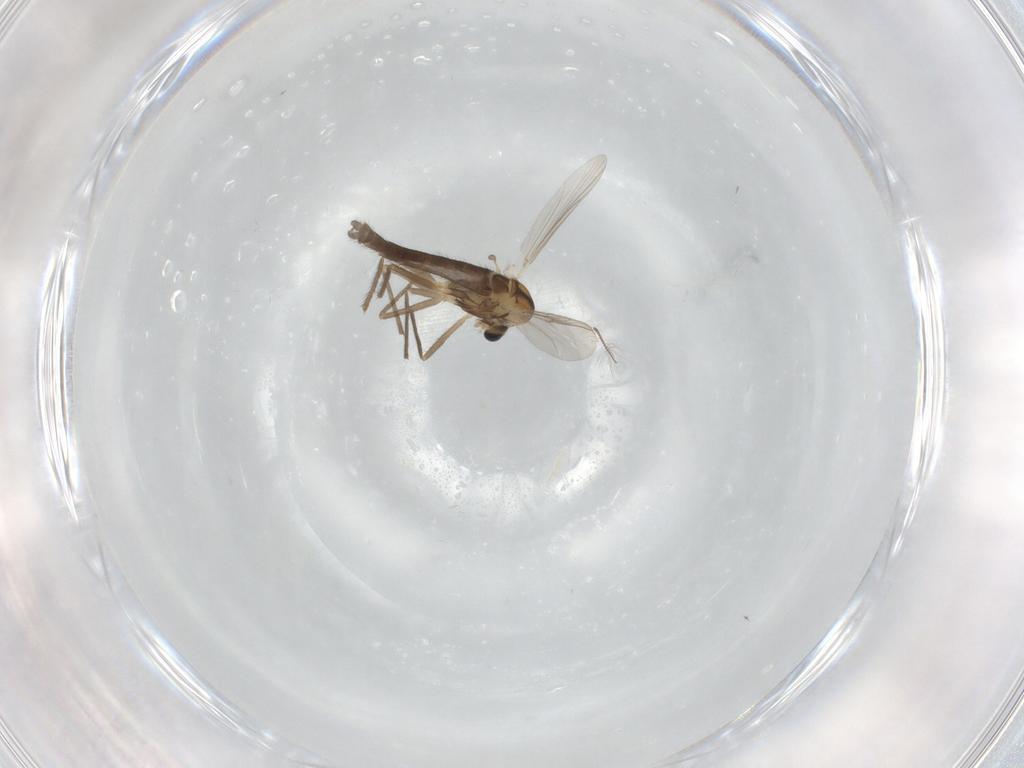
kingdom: Animalia
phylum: Arthropoda
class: Insecta
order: Diptera
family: Chironomidae
